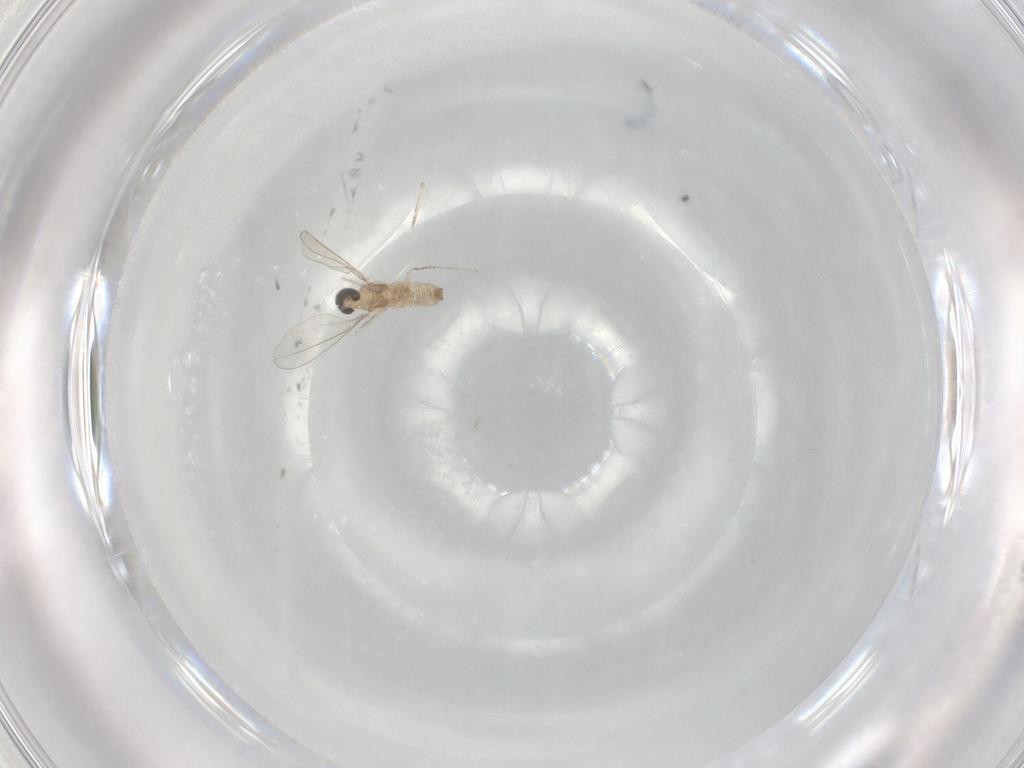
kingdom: Animalia
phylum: Arthropoda
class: Insecta
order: Diptera
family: Cecidomyiidae
